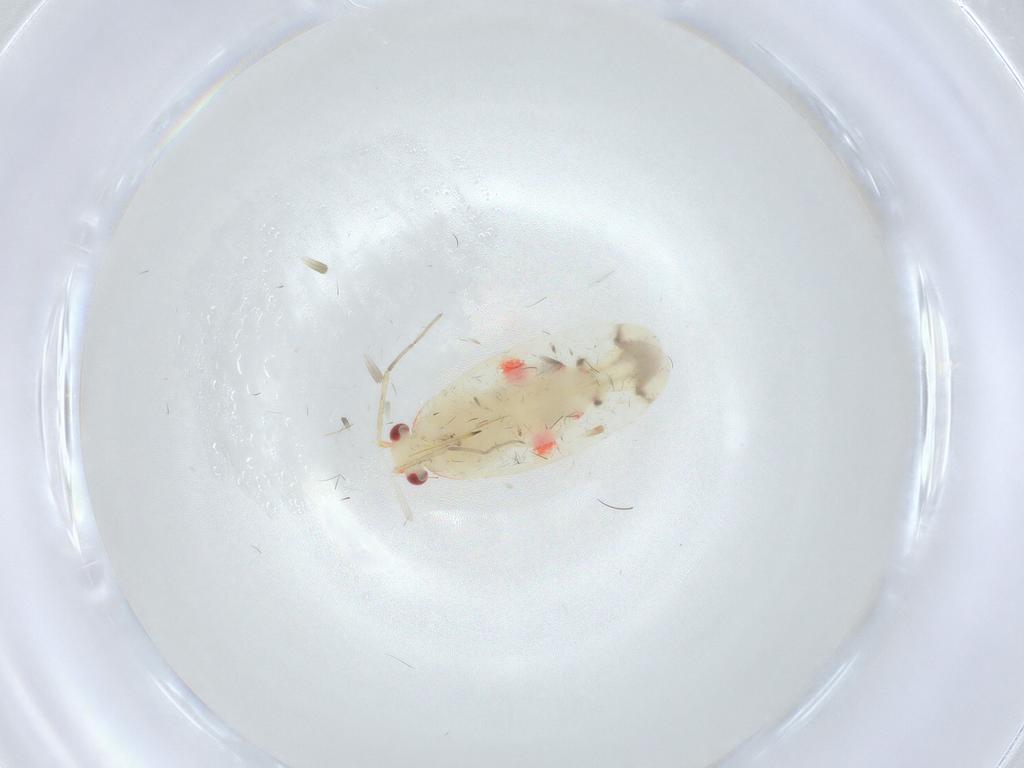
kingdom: Animalia
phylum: Arthropoda
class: Insecta
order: Hemiptera
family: Miridae
